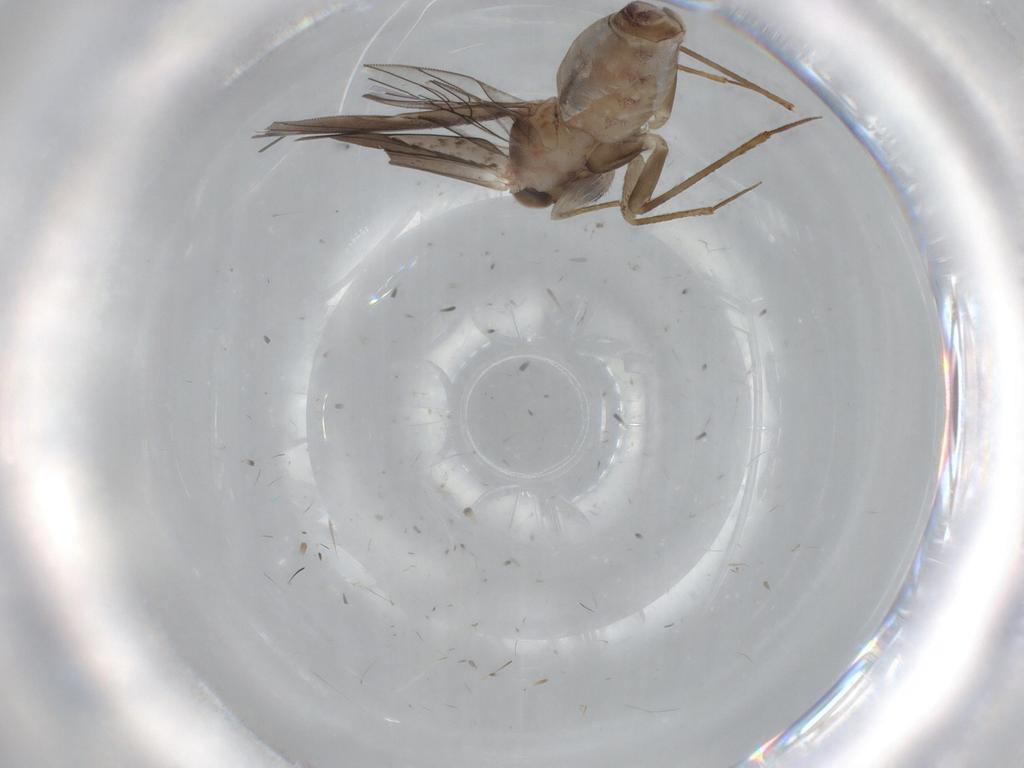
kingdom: Animalia
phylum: Arthropoda
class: Insecta
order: Psocodea
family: Lepidopsocidae
